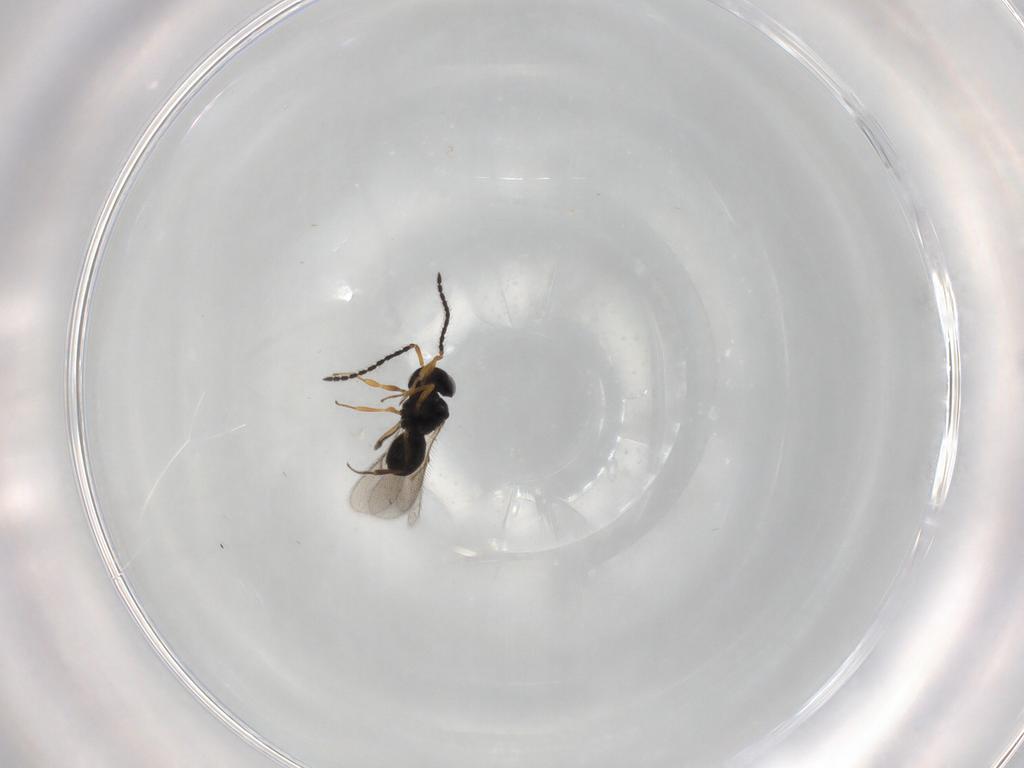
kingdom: Animalia
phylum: Arthropoda
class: Insecta
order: Hymenoptera
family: Scelionidae
